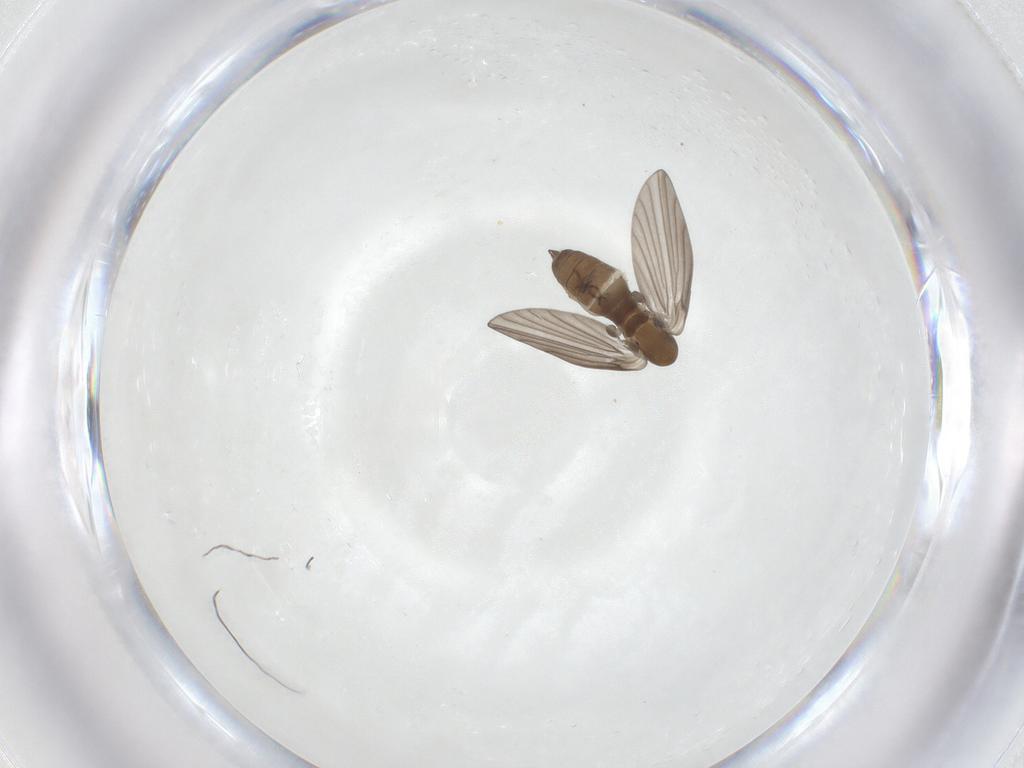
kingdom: Animalia
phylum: Arthropoda
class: Insecta
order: Diptera
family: Psychodidae
